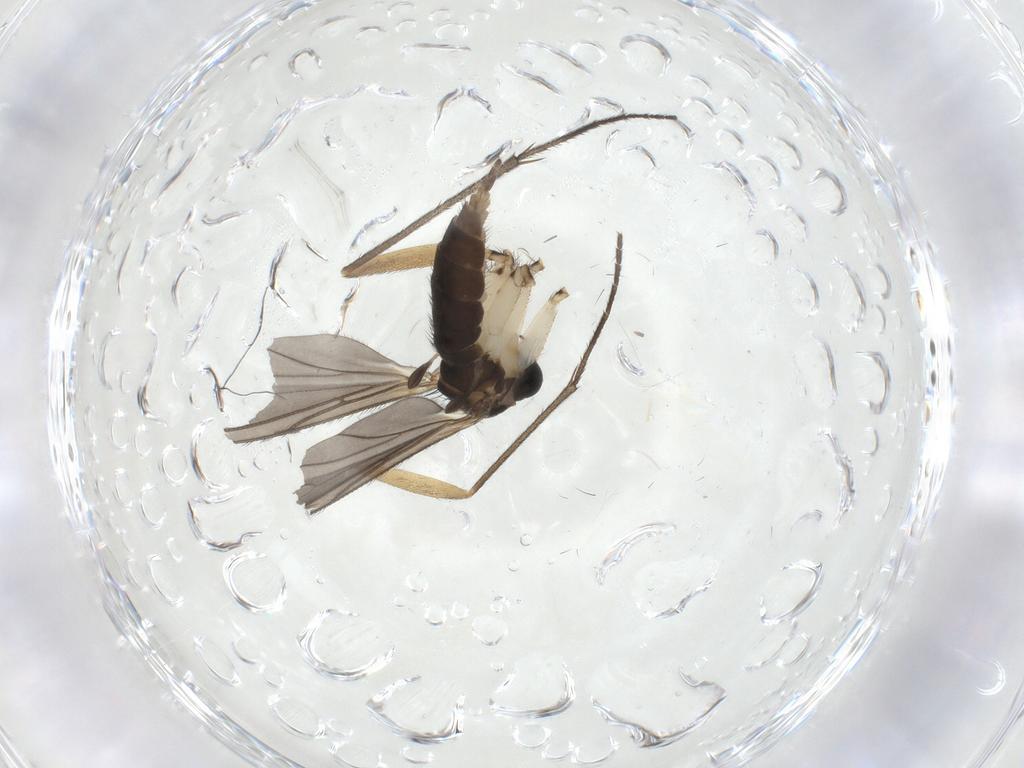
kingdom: Animalia
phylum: Arthropoda
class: Insecta
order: Diptera
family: Sciaridae
